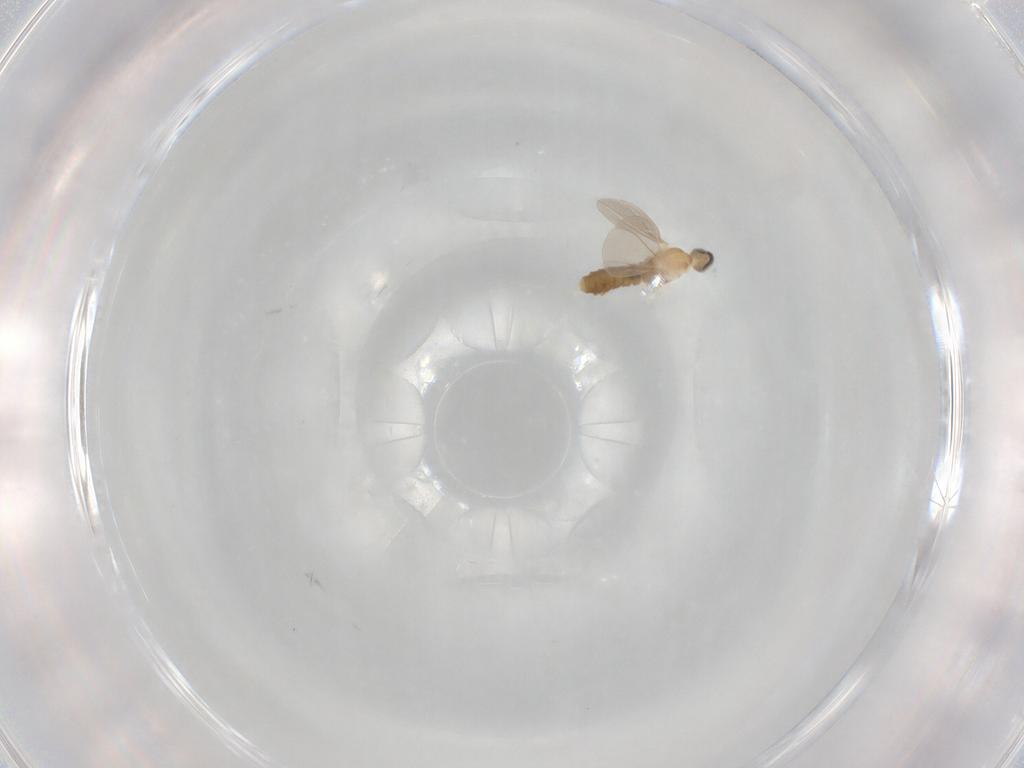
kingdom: Animalia
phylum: Arthropoda
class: Insecta
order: Diptera
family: Cecidomyiidae
